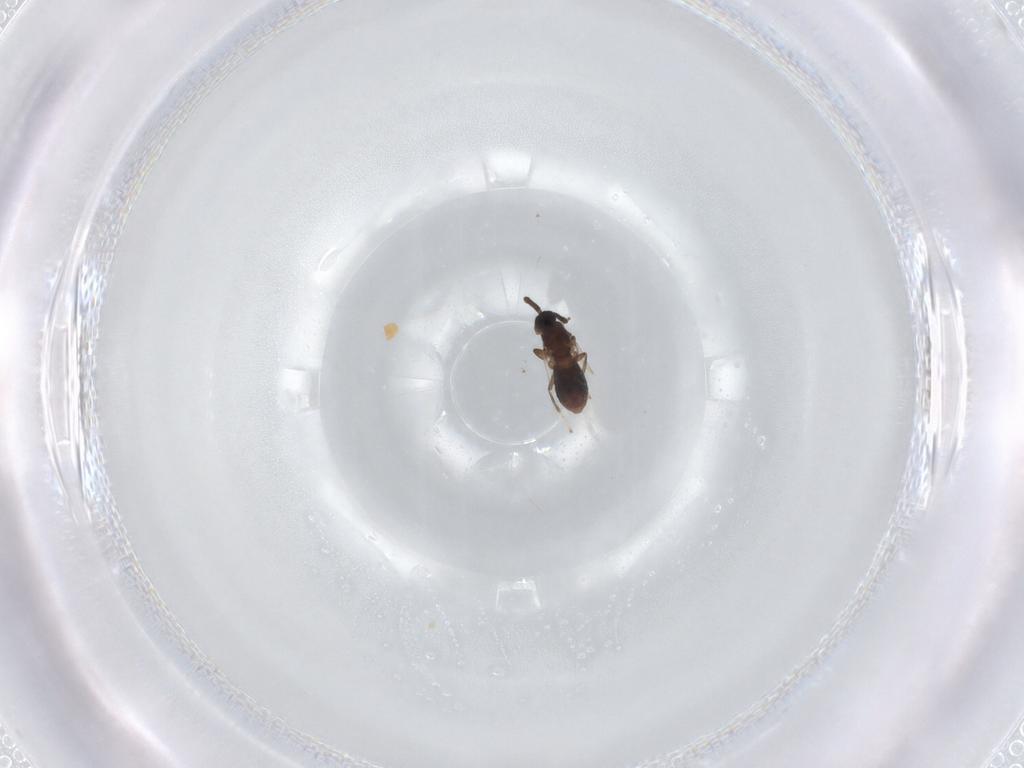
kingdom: Animalia
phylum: Arthropoda
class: Insecta
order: Diptera
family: Scatopsidae
